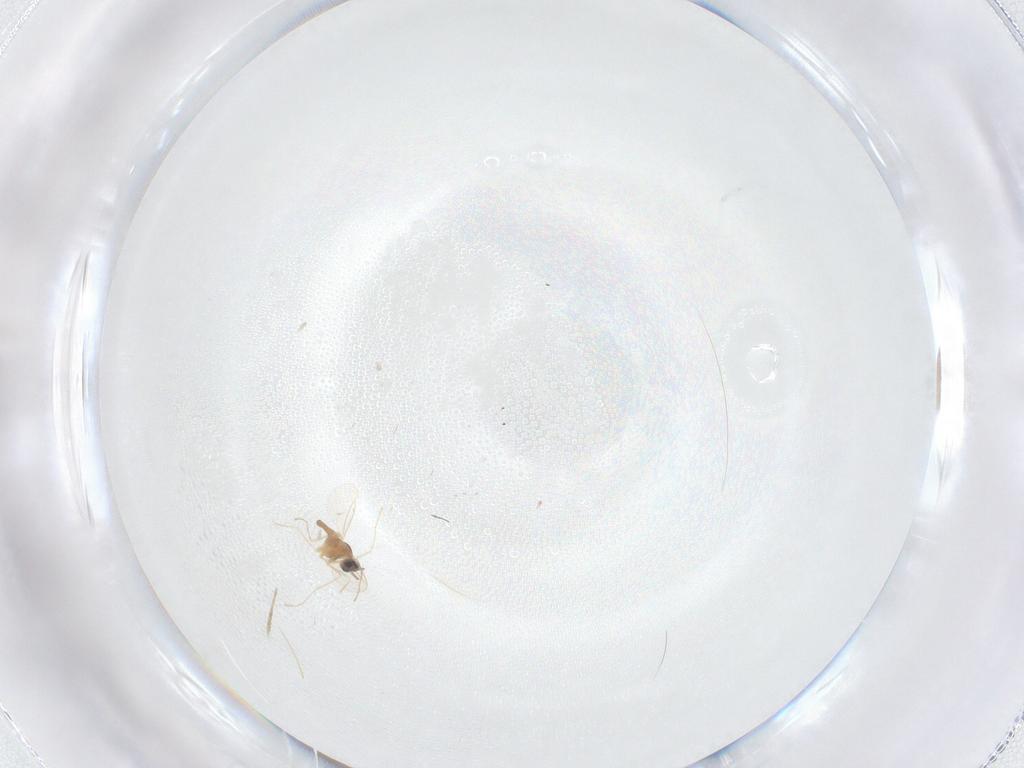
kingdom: Animalia
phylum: Arthropoda
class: Insecta
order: Diptera
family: Cecidomyiidae
